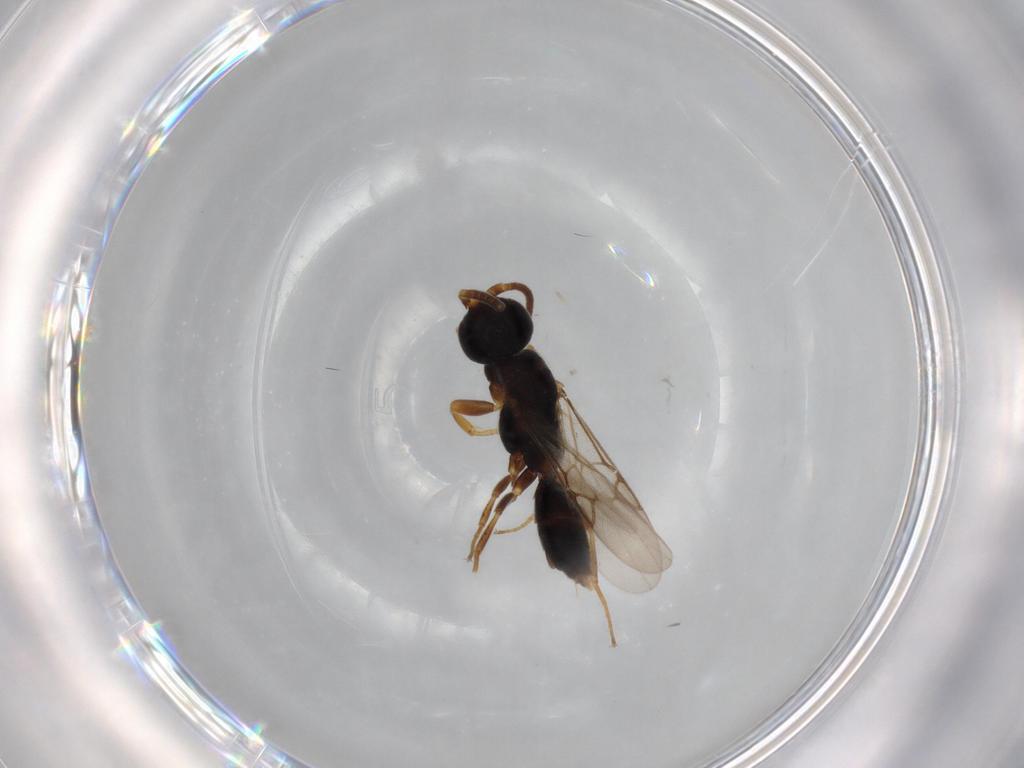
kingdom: Animalia
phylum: Arthropoda
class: Insecta
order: Hymenoptera
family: Sclerogibbidae
